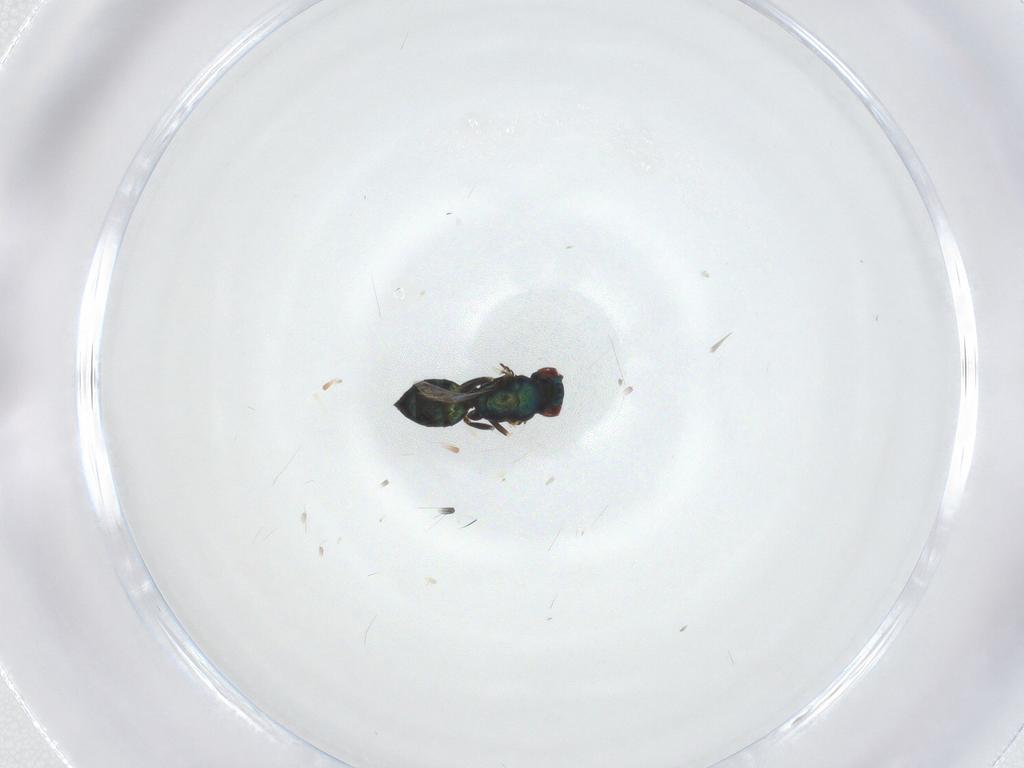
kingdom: Animalia
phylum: Arthropoda
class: Insecta
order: Hymenoptera
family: Eulophidae
